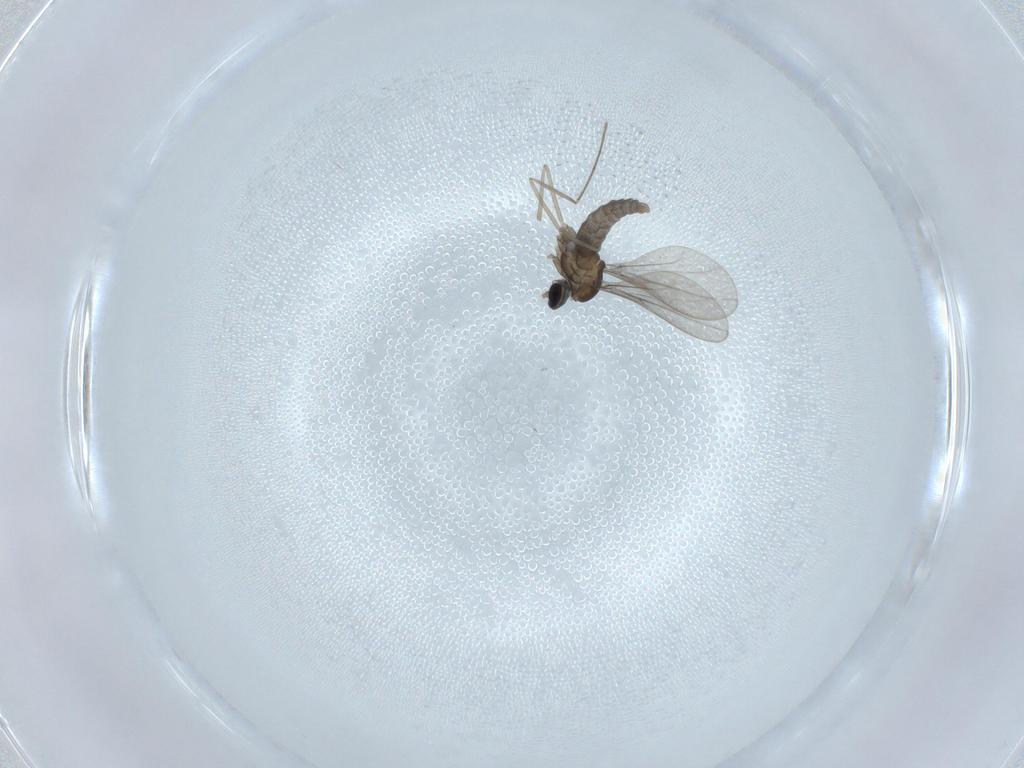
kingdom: Animalia
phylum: Arthropoda
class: Insecta
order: Diptera
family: Cecidomyiidae
